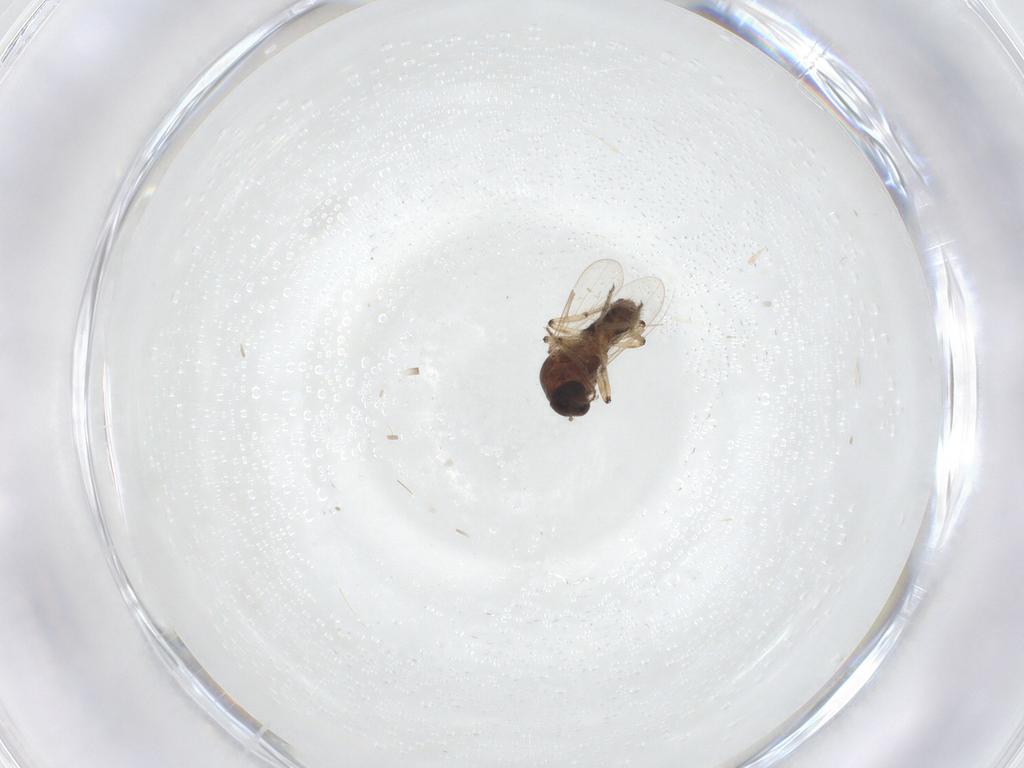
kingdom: Animalia
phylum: Arthropoda
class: Insecta
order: Diptera
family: Ceratopogonidae
